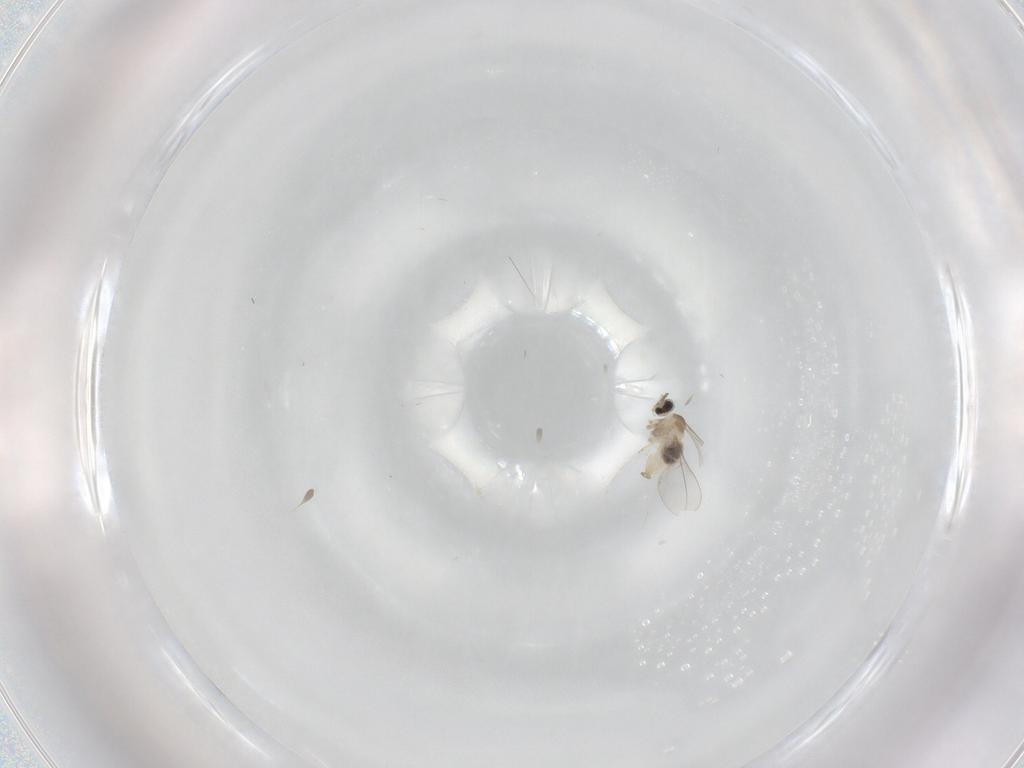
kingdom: Animalia
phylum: Arthropoda
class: Insecta
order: Diptera
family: Cecidomyiidae
